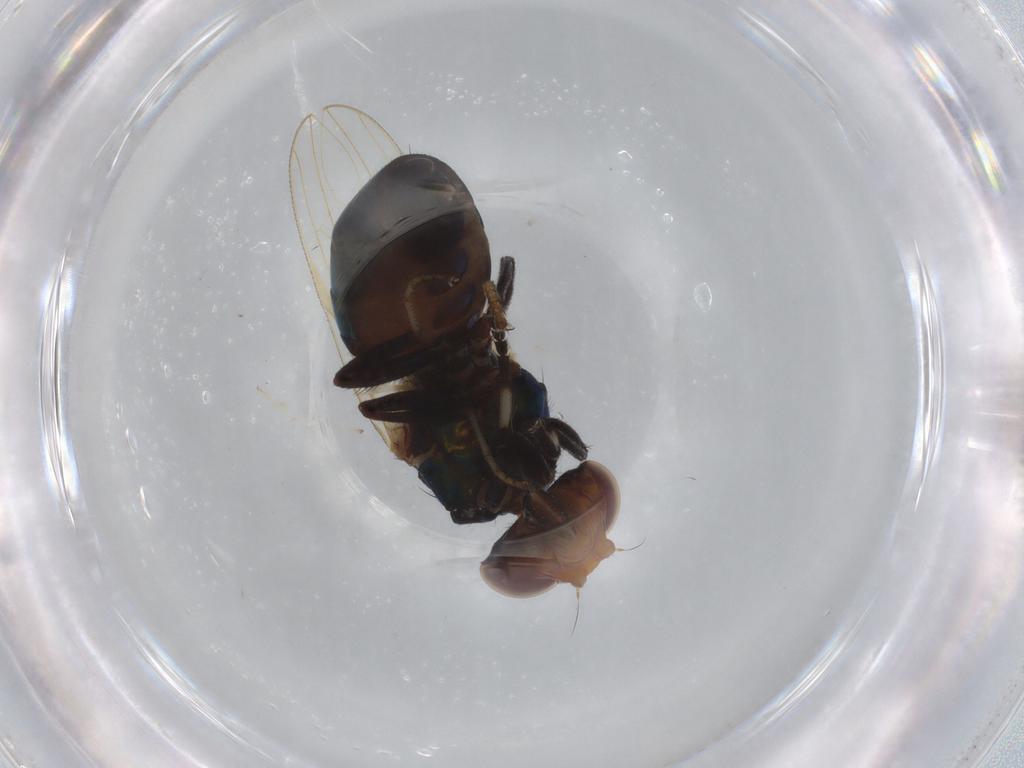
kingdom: Animalia
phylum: Arthropoda
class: Insecta
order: Diptera
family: Ulidiidae
